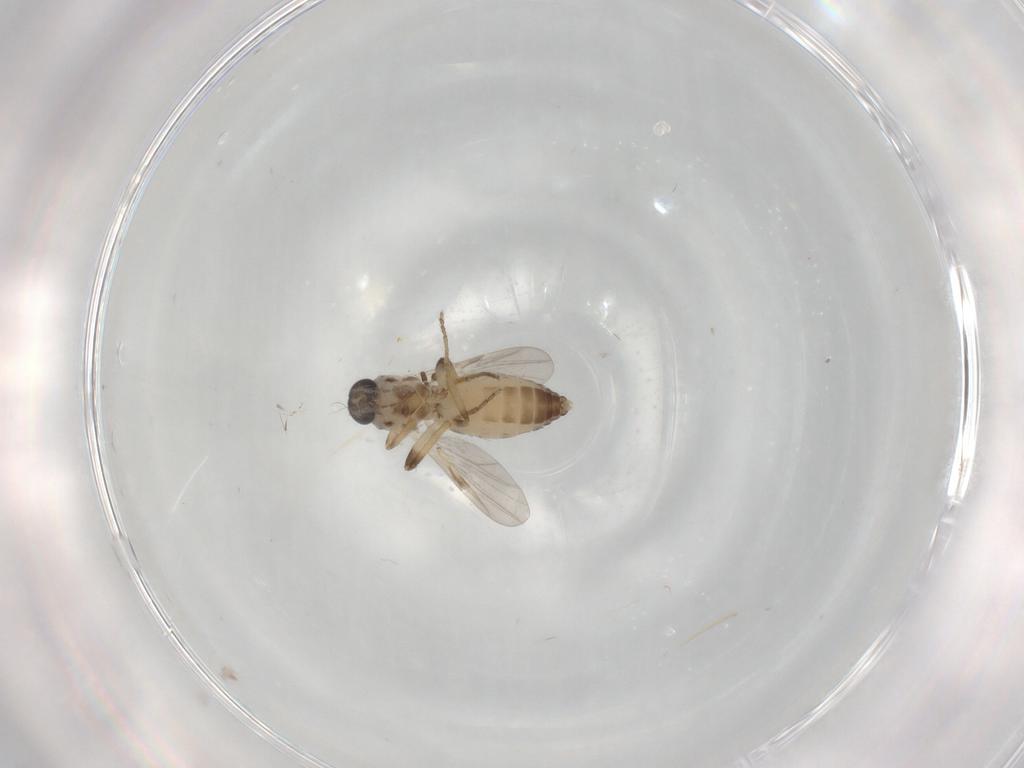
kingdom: Animalia
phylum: Arthropoda
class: Insecta
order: Diptera
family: Ceratopogonidae
